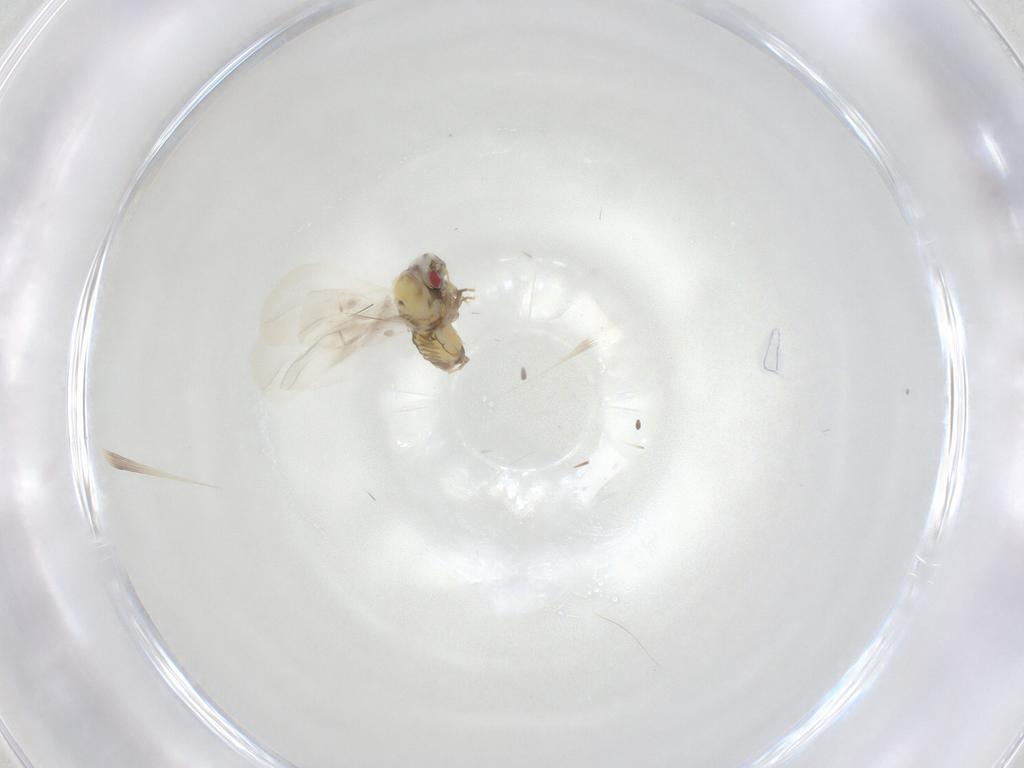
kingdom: Animalia
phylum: Arthropoda
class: Insecta
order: Hemiptera
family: Aleyrodidae
